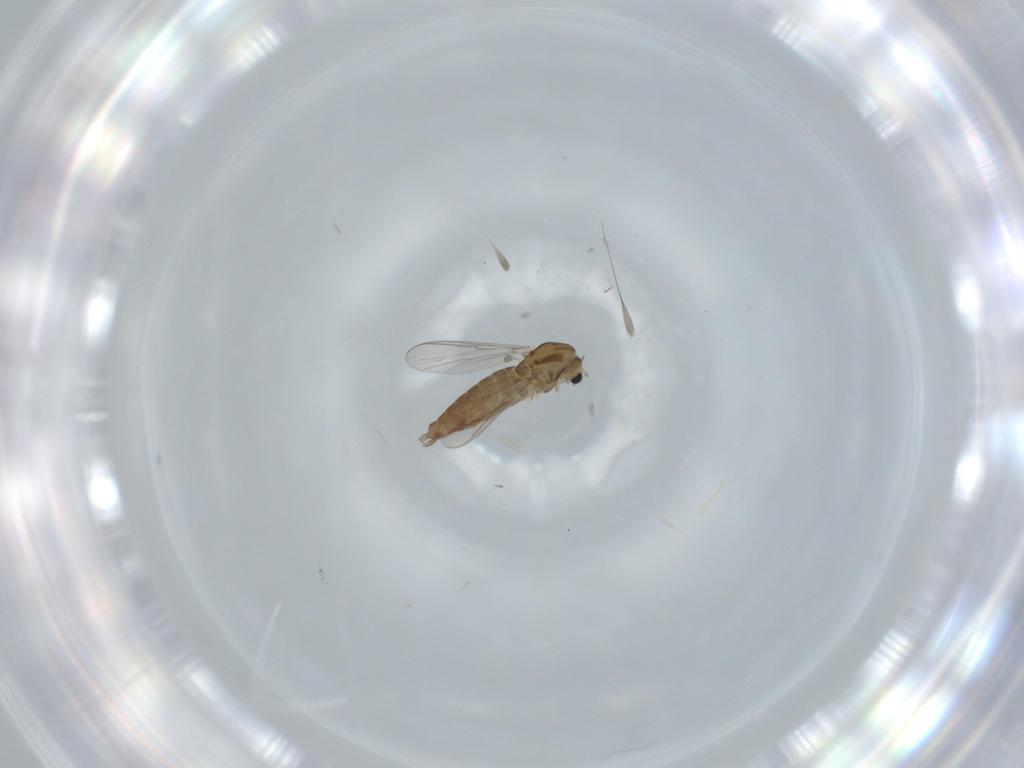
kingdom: Animalia
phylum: Arthropoda
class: Insecta
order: Diptera
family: Chironomidae
